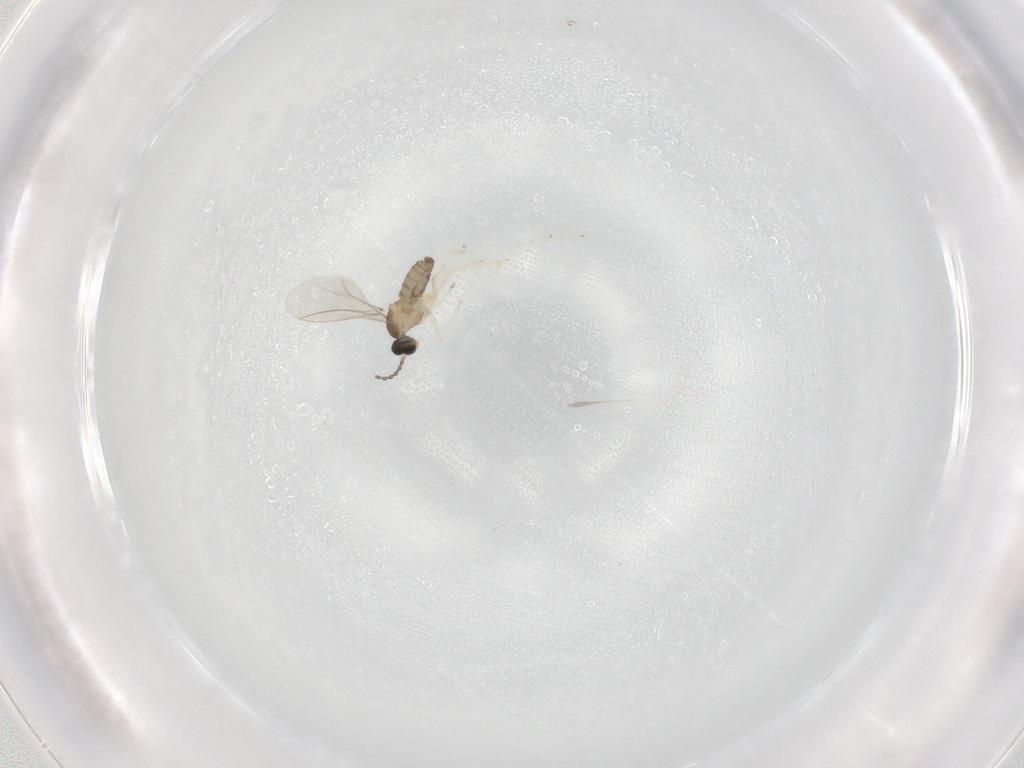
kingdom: Animalia
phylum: Arthropoda
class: Insecta
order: Diptera
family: Cecidomyiidae
